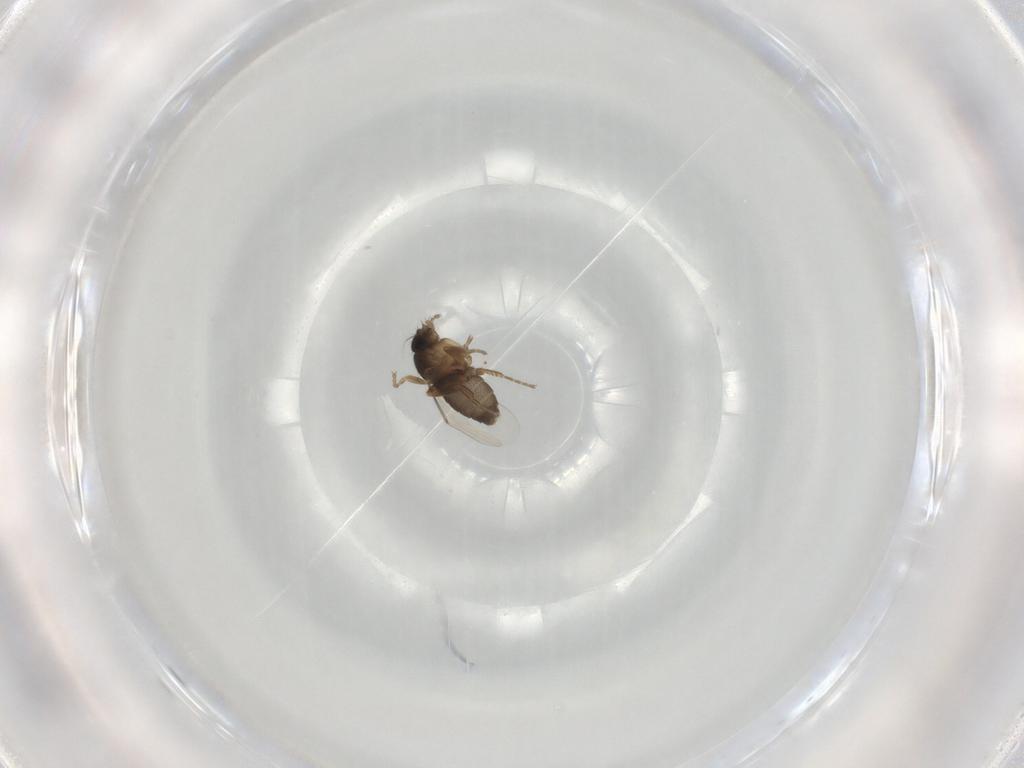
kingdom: Animalia
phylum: Arthropoda
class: Insecta
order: Diptera
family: Phoridae
